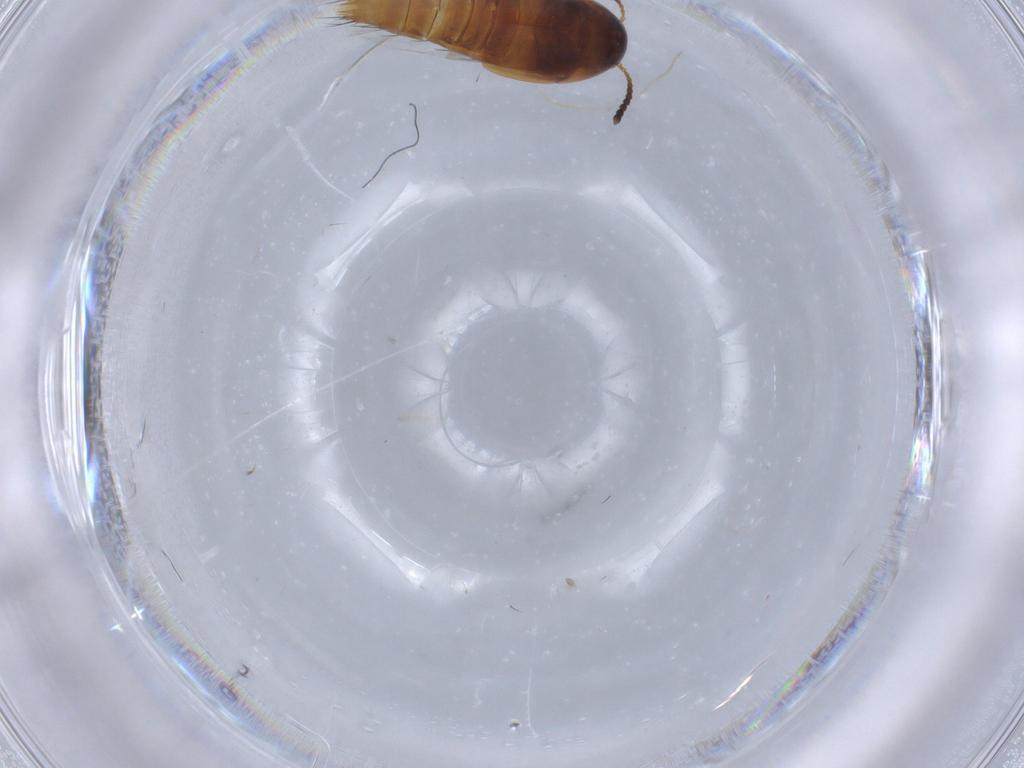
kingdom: Animalia
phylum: Arthropoda
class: Insecta
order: Coleoptera
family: Staphylinidae
